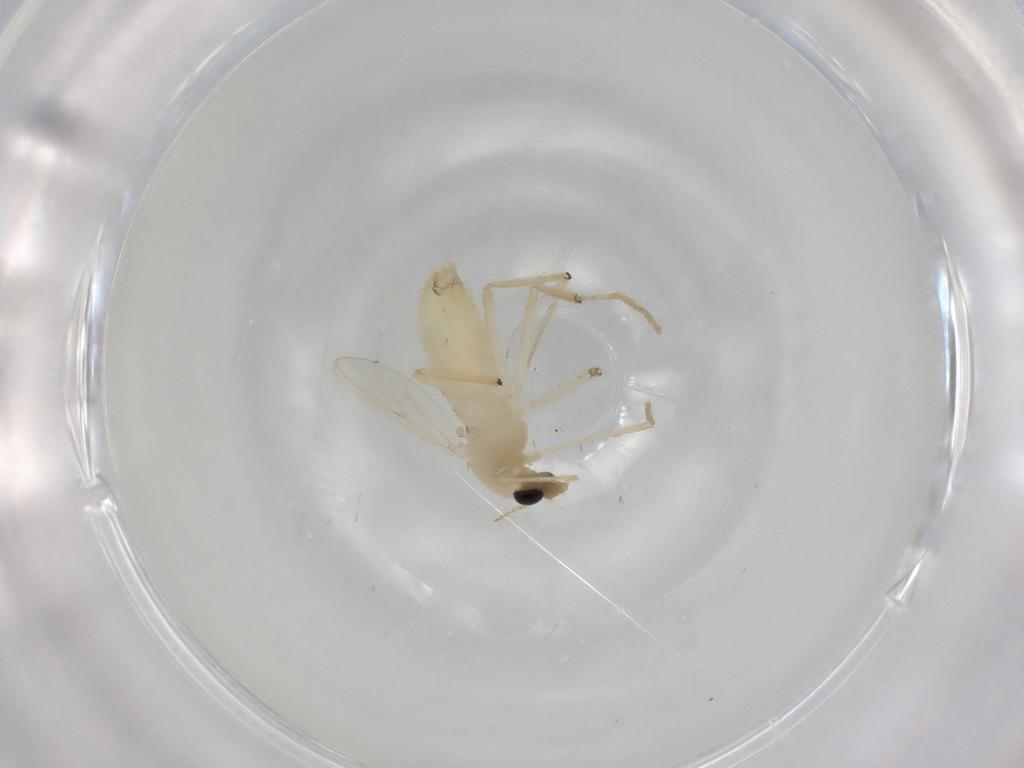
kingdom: Animalia
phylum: Arthropoda
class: Insecta
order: Diptera
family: Chironomidae
